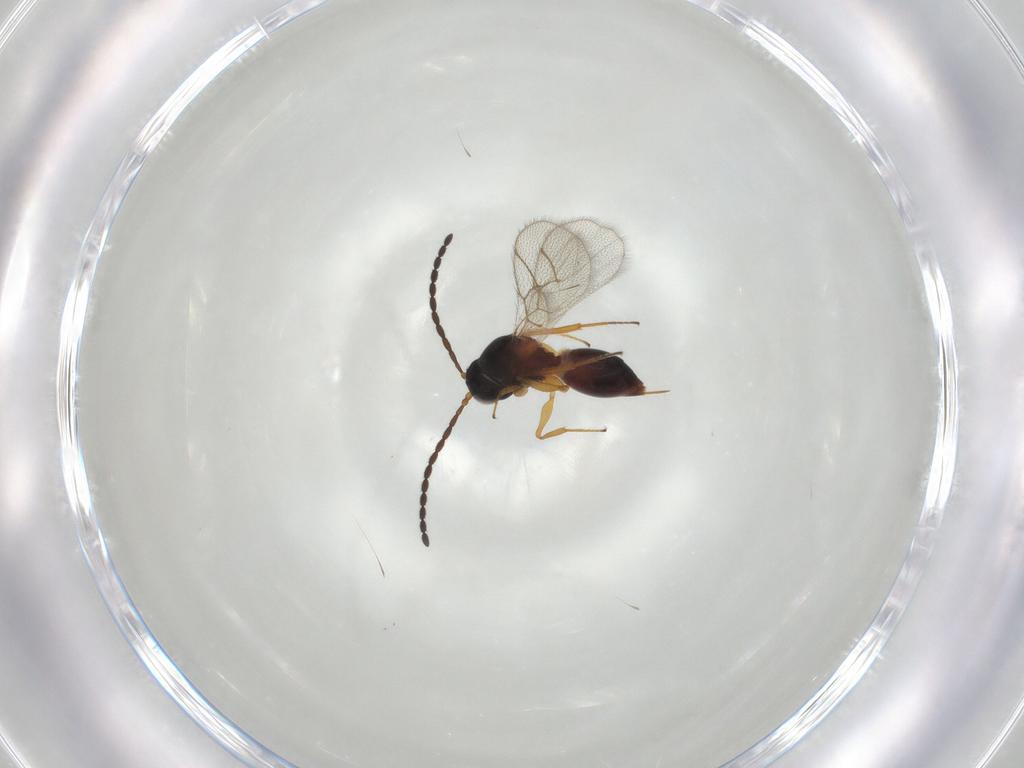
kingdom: Animalia
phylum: Arthropoda
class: Insecta
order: Hymenoptera
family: Figitidae
